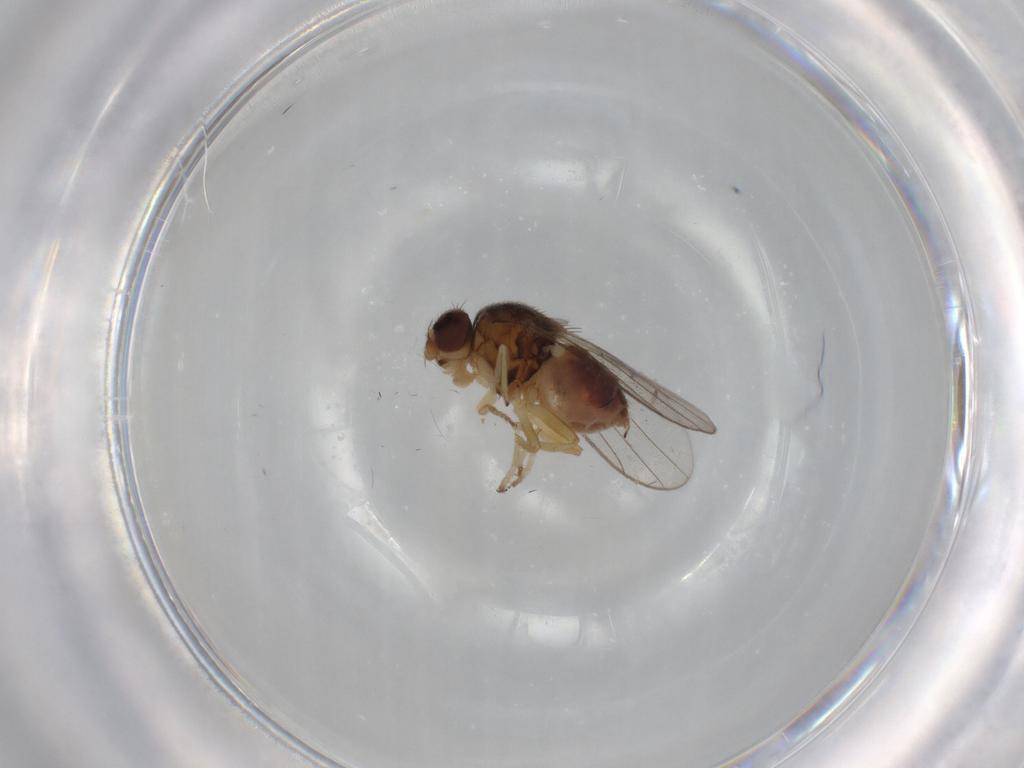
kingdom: Animalia
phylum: Arthropoda
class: Insecta
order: Diptera
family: Chloropidae
